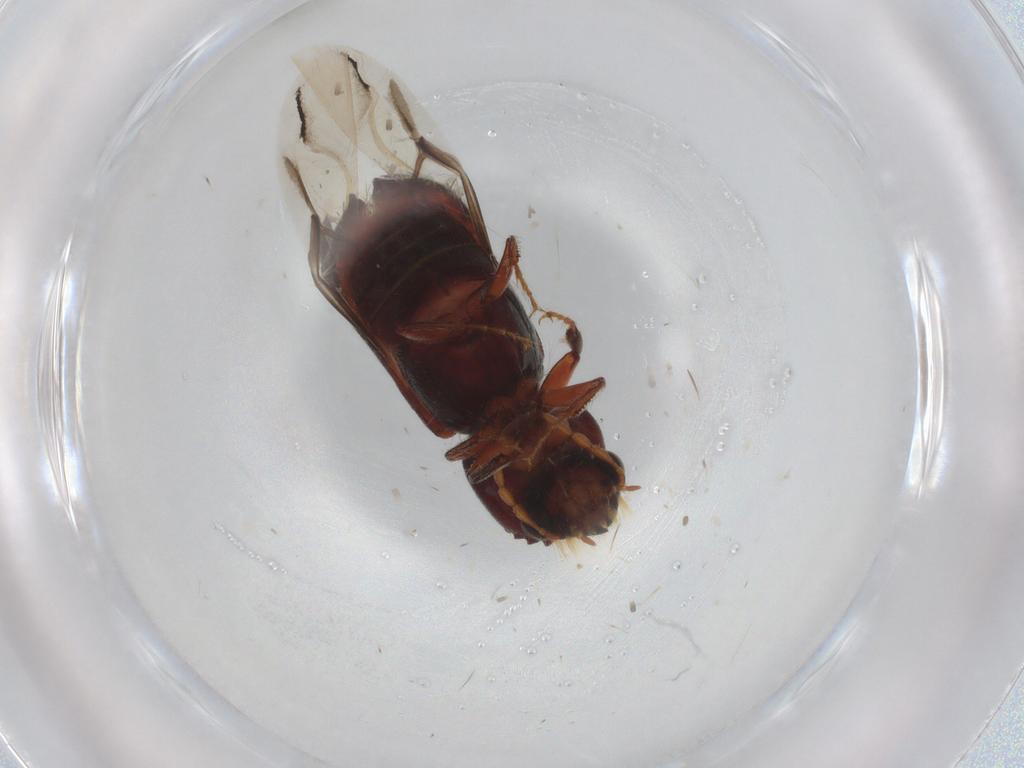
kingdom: Animalia
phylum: Arthropoda
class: Insecta
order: Coleoptera
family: Bostrichidae
